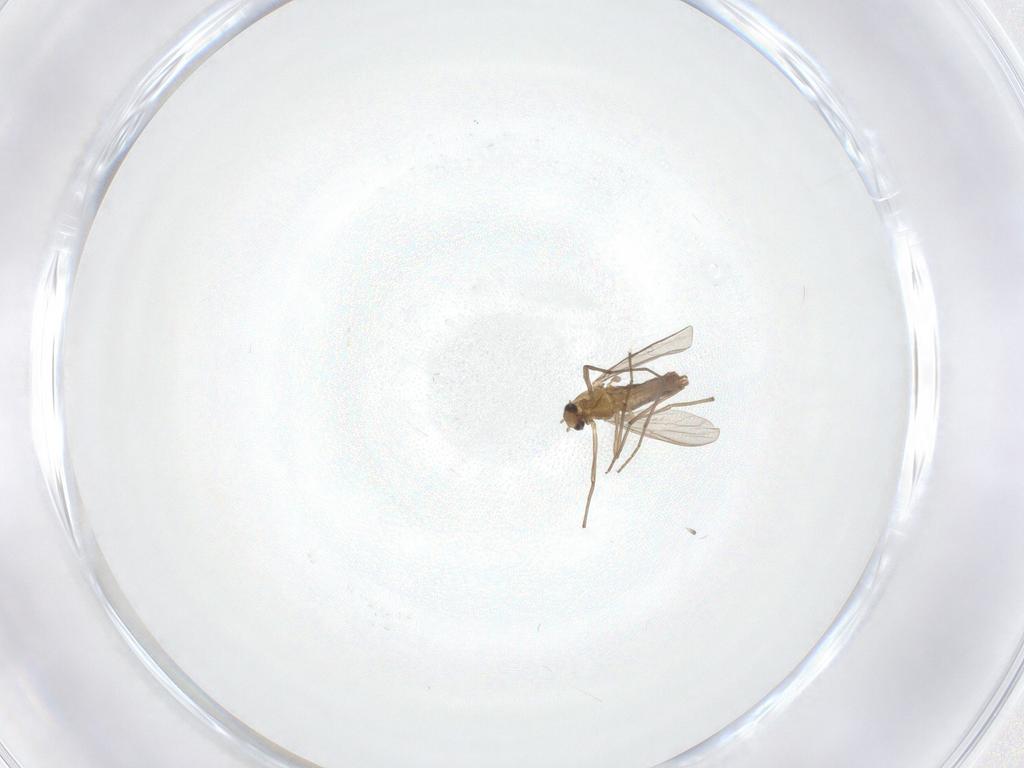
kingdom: Animalia
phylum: Arthropoda
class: Insecta
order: Diptera
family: Chironomidae
